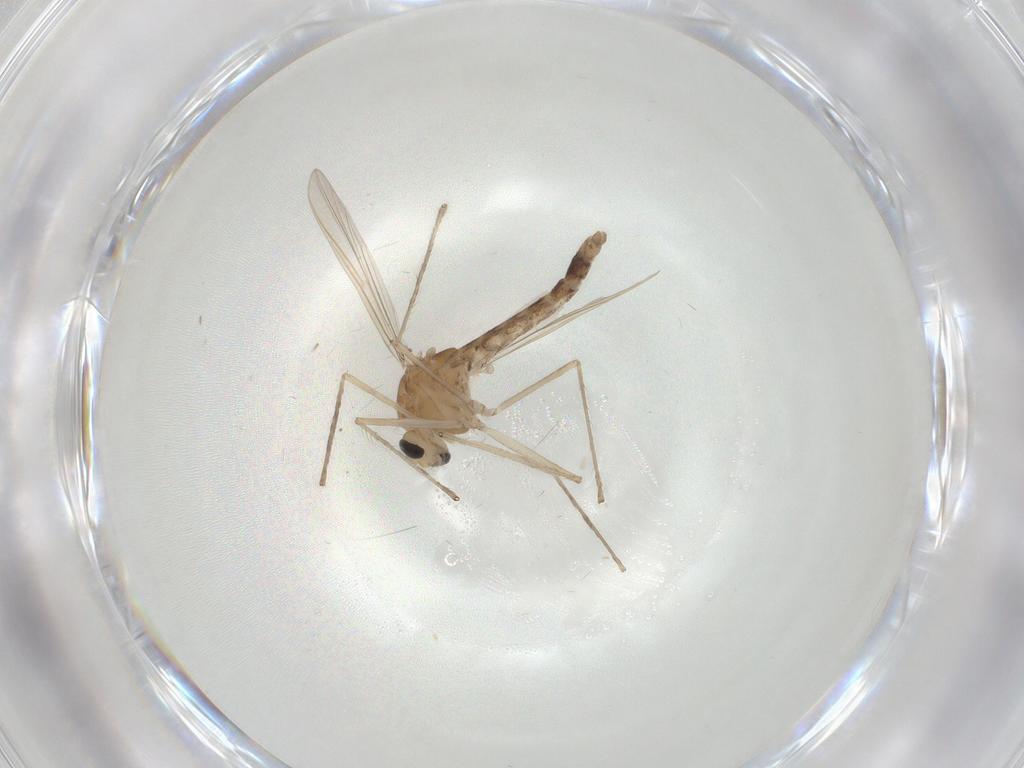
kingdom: Animalia
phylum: Arthropoda
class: Insecta
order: Diptera
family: Chironomidae
